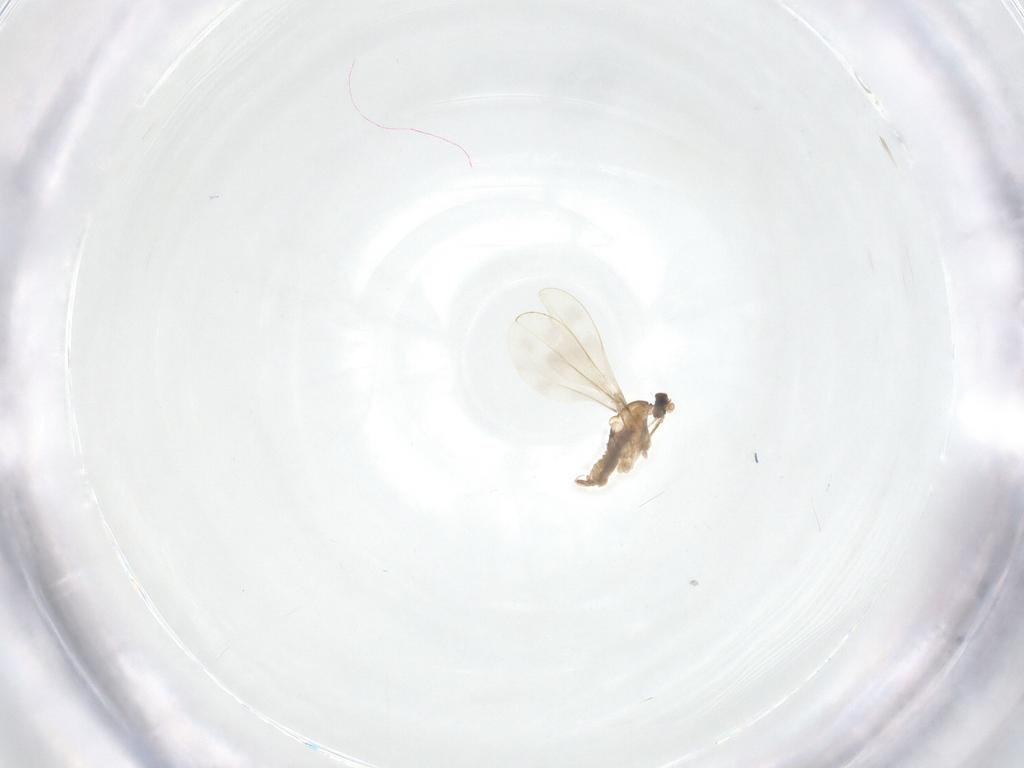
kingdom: Animalia
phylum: Arthropoda
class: Insecta
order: Diptera
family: Cecidomyiidae
